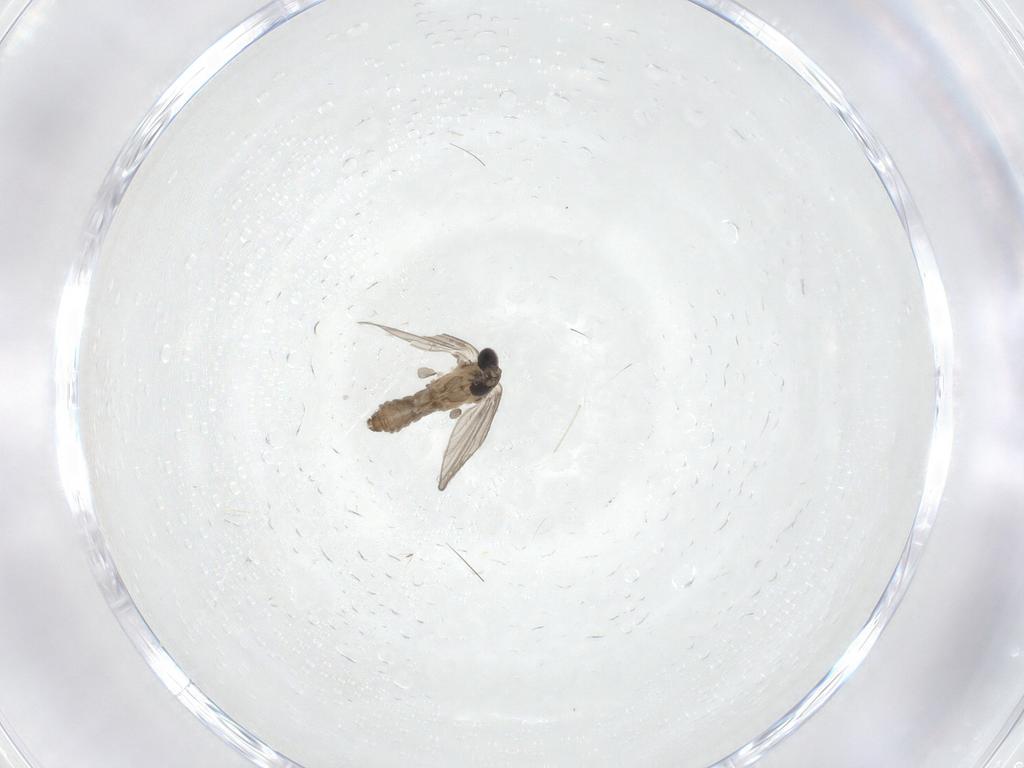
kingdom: Animalia
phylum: Arthropoda
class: Insecta
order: Diptera
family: Psychodidae
